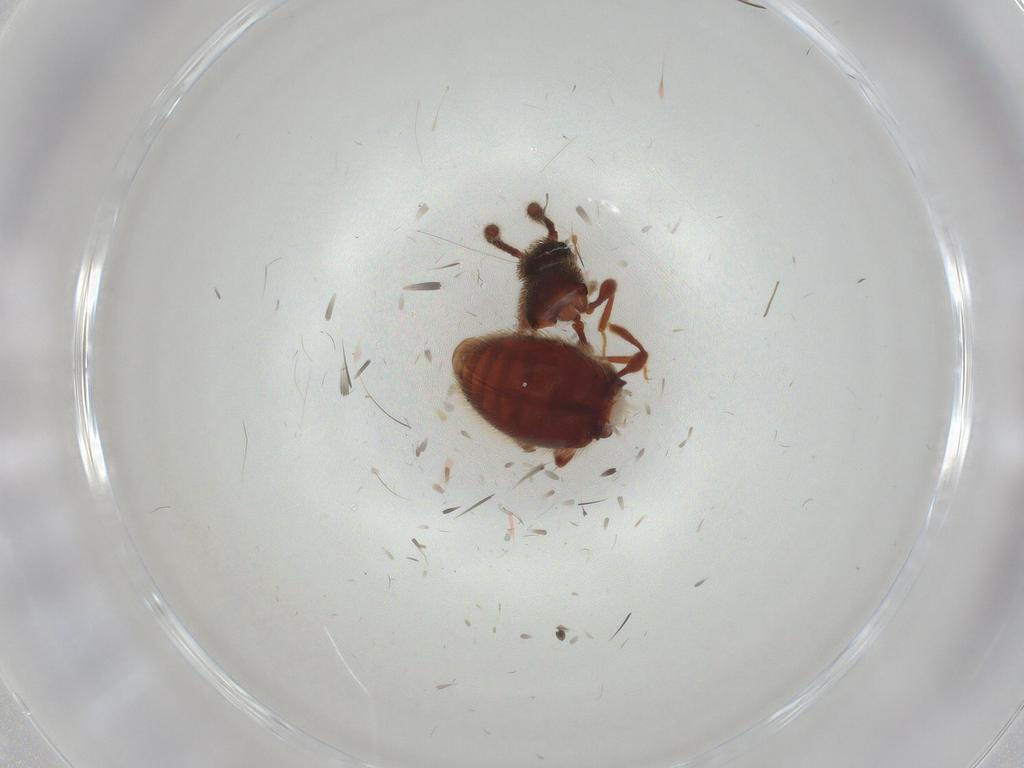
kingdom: Animalia
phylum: Arthropoda
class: Insecta
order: Coleoptera
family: Staphylinidae
